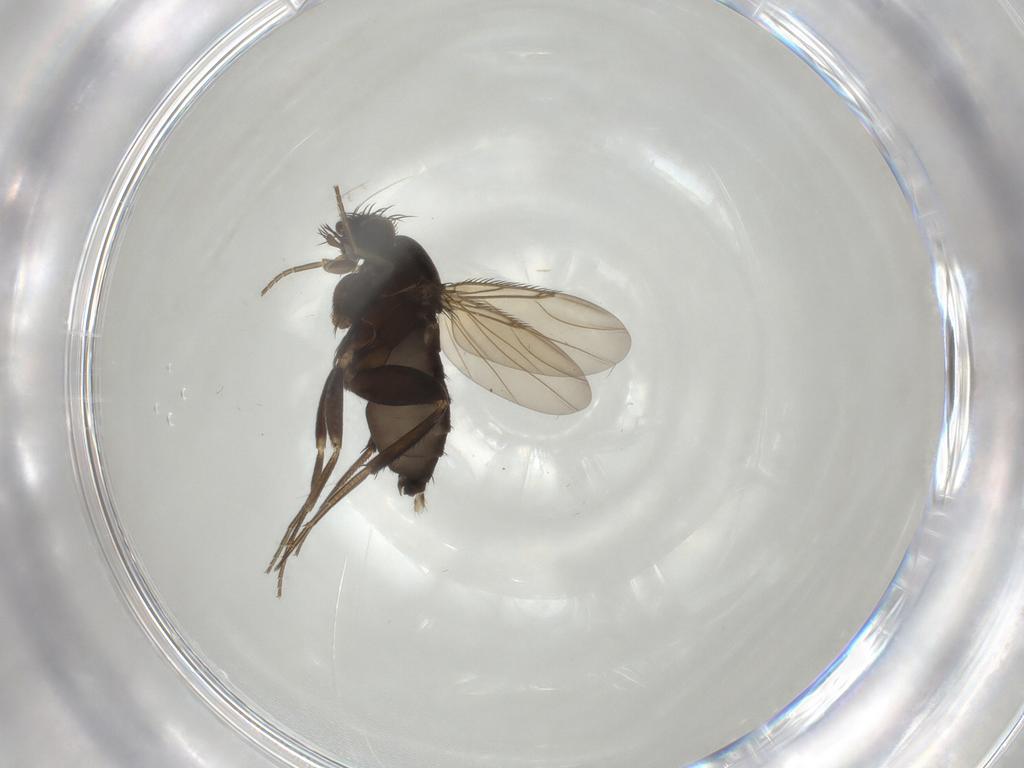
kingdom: Animalia
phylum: Arthropoda
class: Insecta
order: Diptera
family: Phoridae
